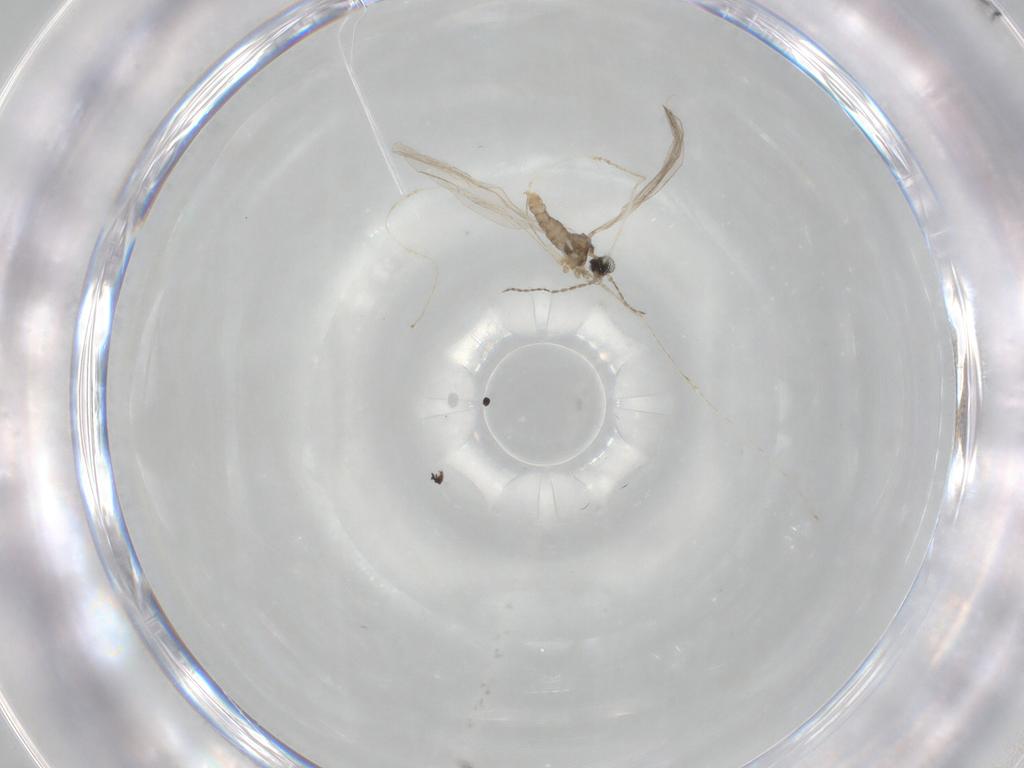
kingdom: Animalia
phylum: Arthropoda
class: Insecta
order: Diptera
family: Cecidomyiidae
